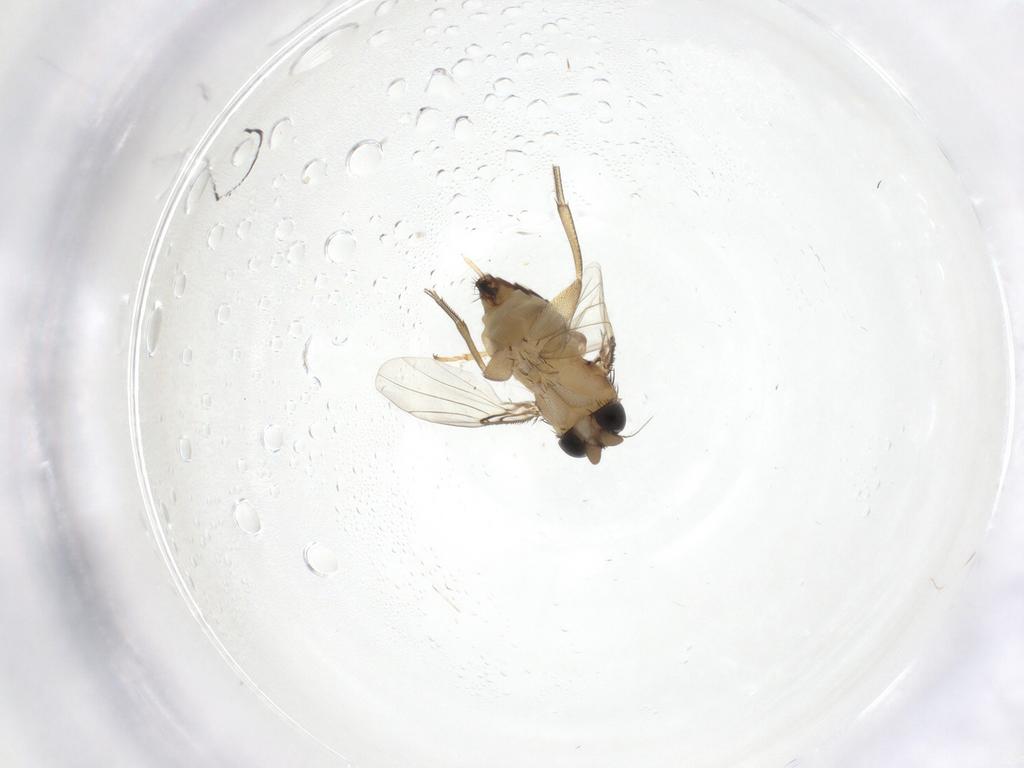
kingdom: Animalia
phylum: Arthropoda
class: Insecta
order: Diptera
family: Phoridae
